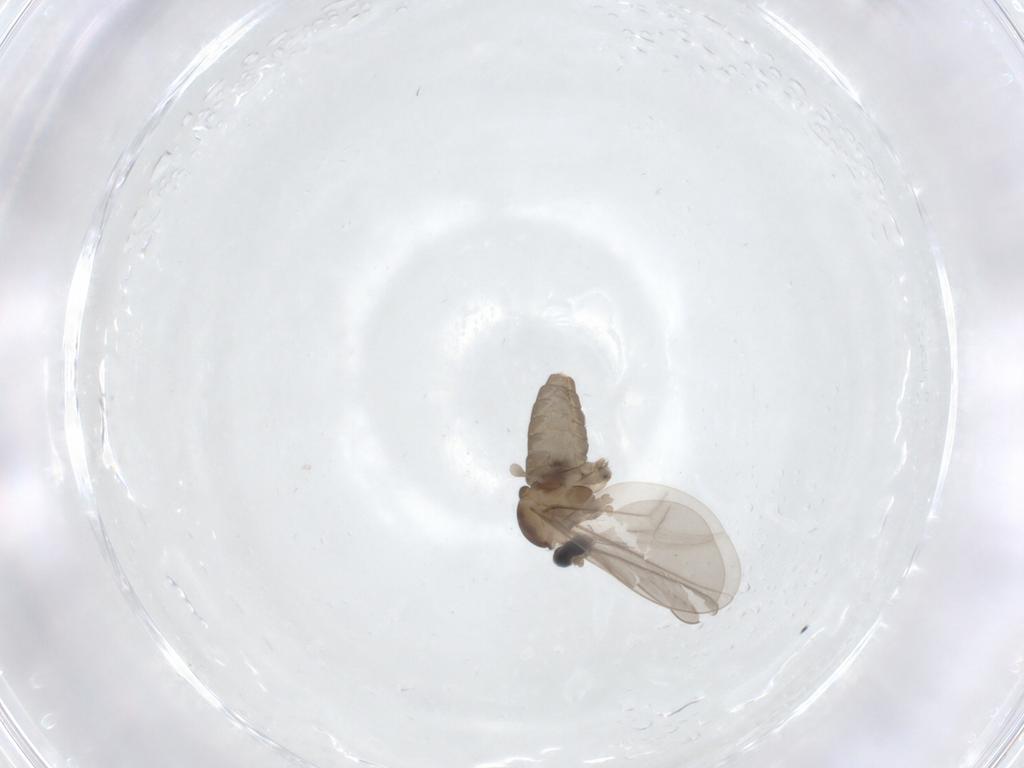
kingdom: Animalia
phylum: Arthropoda
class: Insecta
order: Diptera
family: Cecidomyiidae
